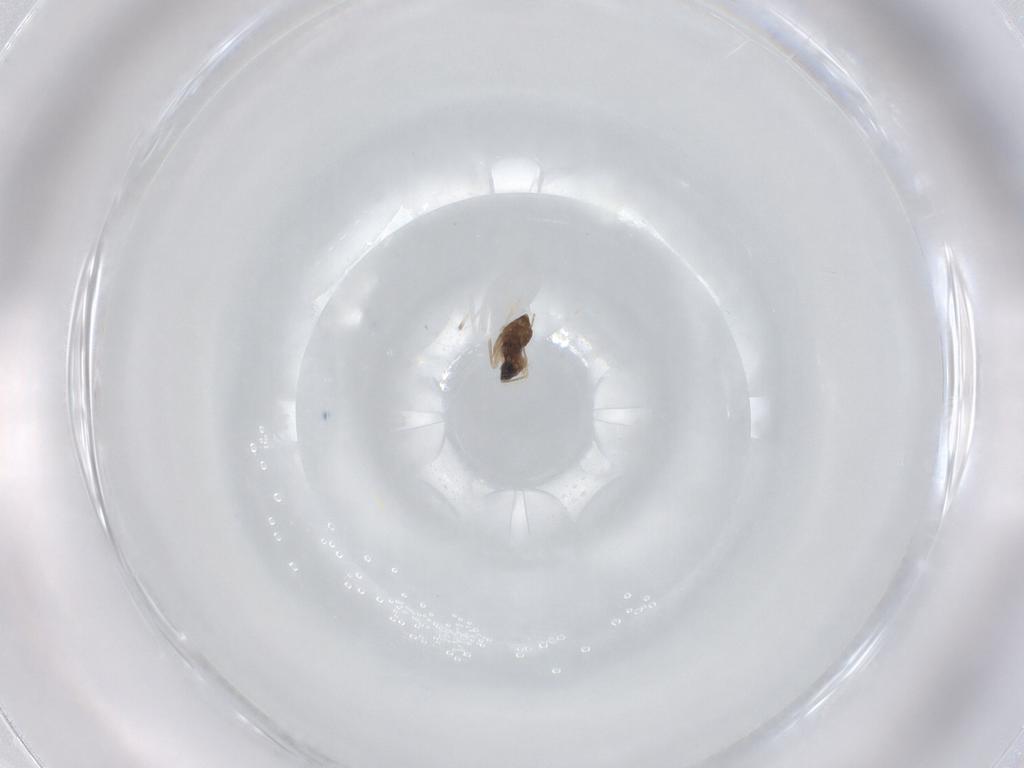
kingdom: Animalia
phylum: Arthropoda
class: Insecta
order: Diptera
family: Cecidomyiidae
